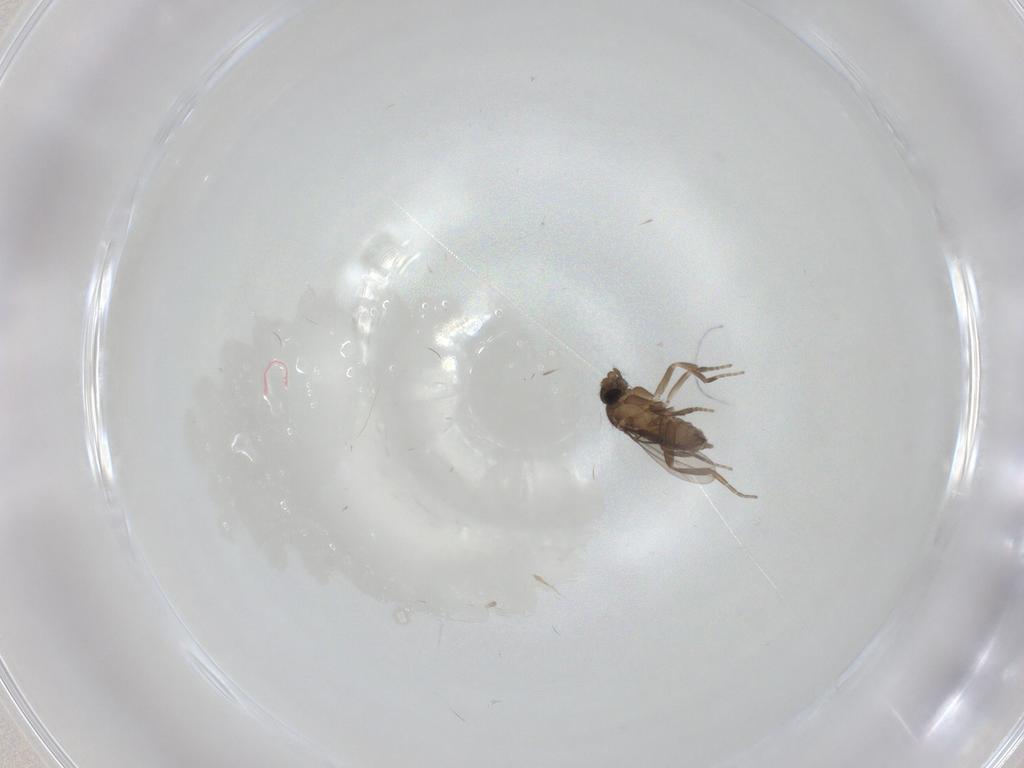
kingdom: Animalia
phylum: Arthropoda
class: Insecta
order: Diptera
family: Phoridae
